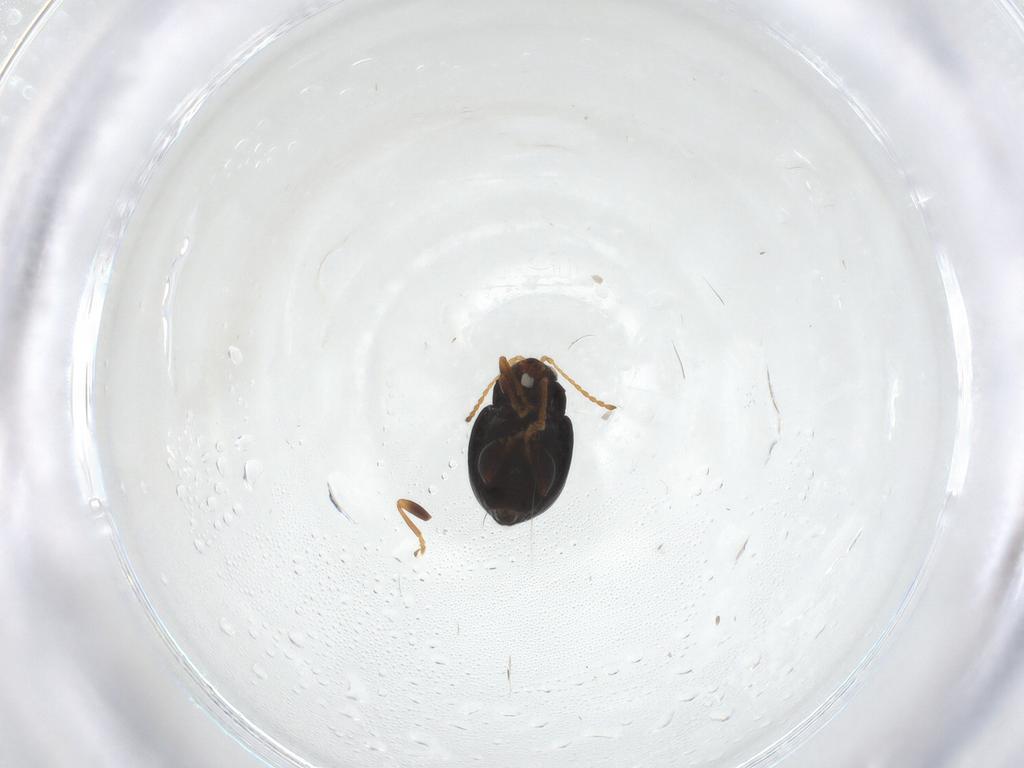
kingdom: Animalia
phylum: Arthropoda
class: Insecta
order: Coleoptera
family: Chrysomelidae
